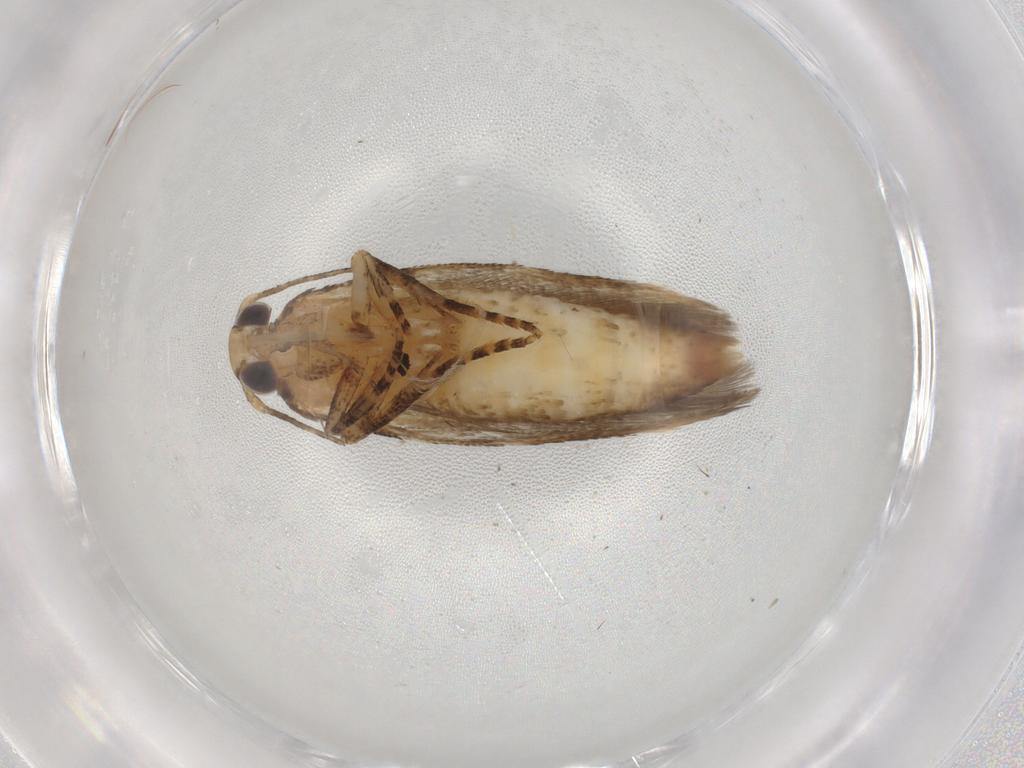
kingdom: Animalia
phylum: Arthropoda
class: Insecta
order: Lepidoptera
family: Gelechiidae
